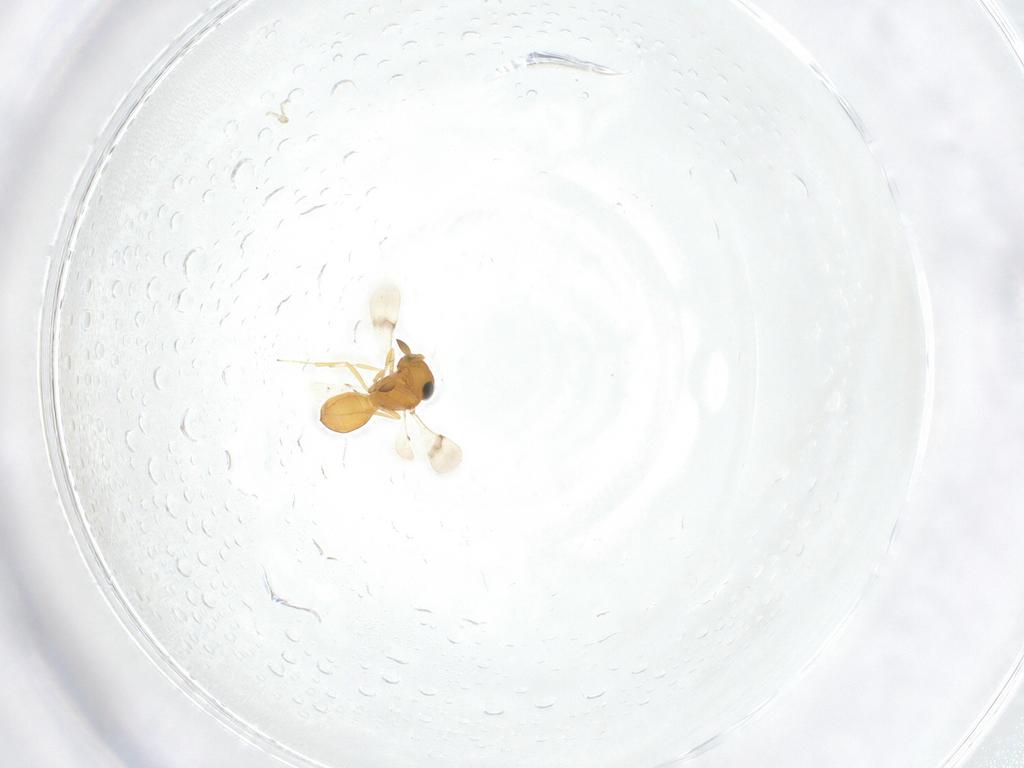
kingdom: Animalia
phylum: Arthropoda
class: Insecta
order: Hymenoptera
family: Scelionidae
